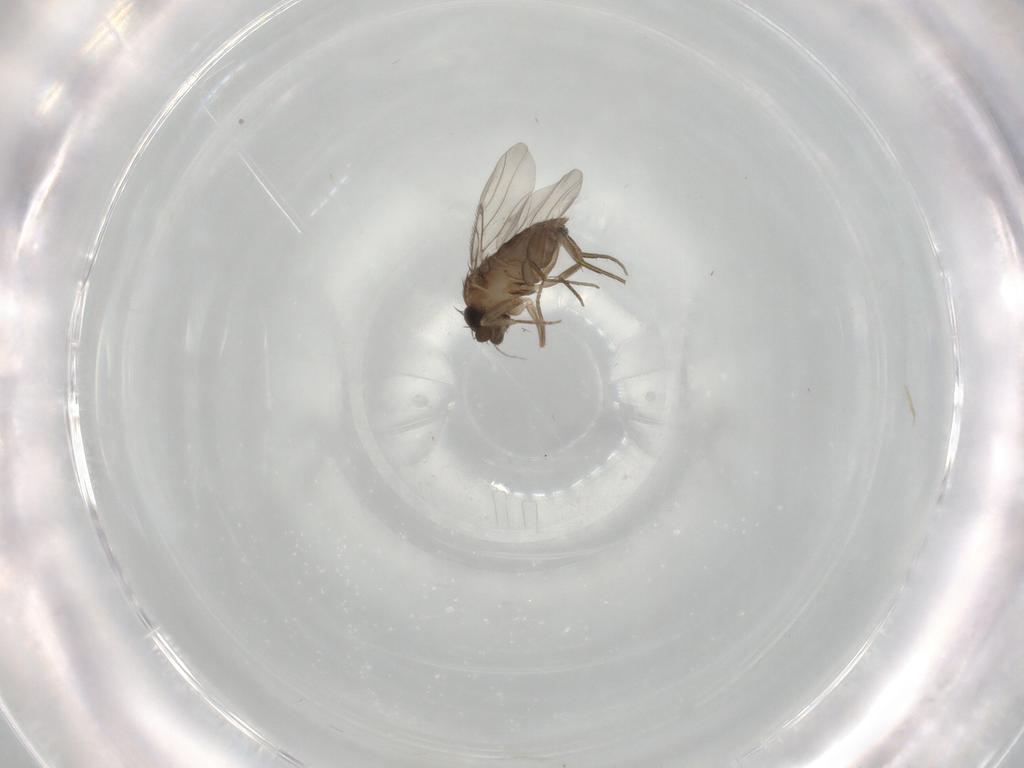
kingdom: Animalia
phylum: Arthropoda
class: Insecta
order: Diptera
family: Phoridae
